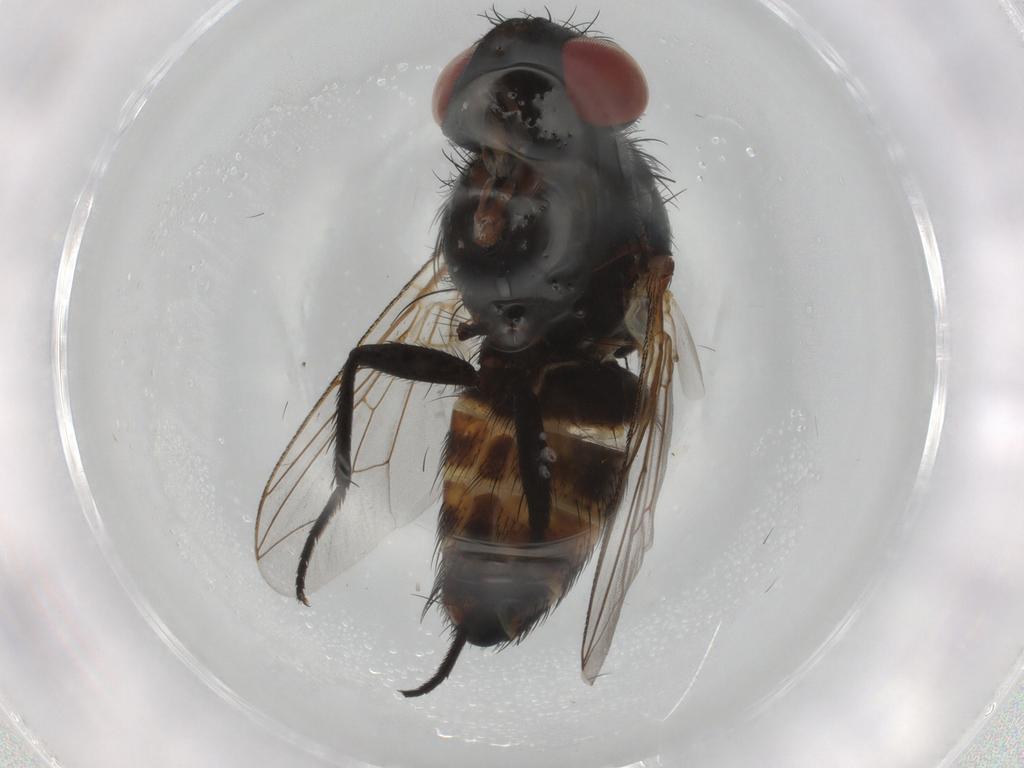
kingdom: Animalia
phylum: Arthropoda
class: Insecta
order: Diptera
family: Sarcophagidae
